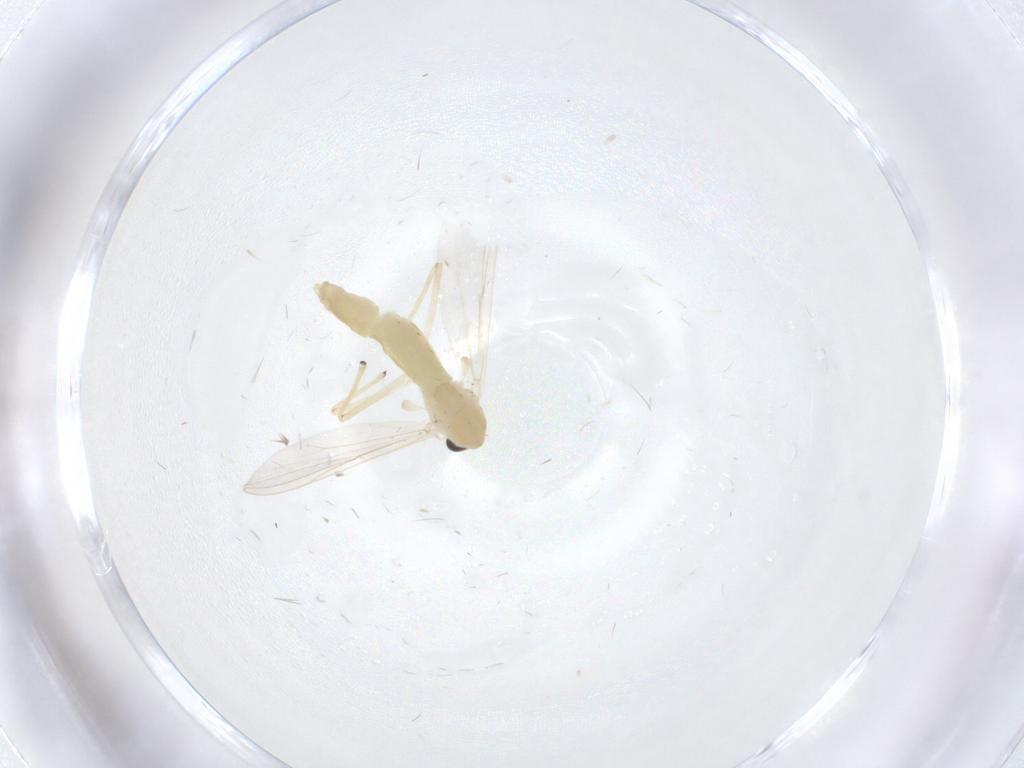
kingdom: Animalia
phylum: Arthropoda
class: Insecta
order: Diptera
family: Chironomidae
